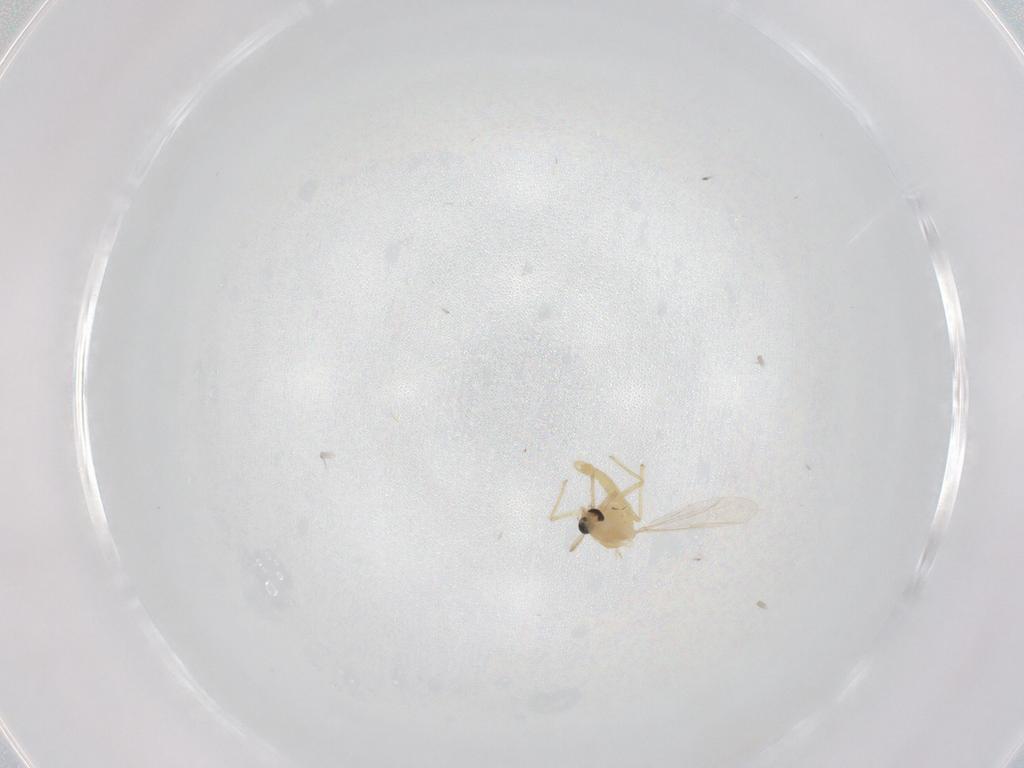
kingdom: Animalia
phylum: Arthropoda
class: Insecta
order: Diptera
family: Chironomidae
